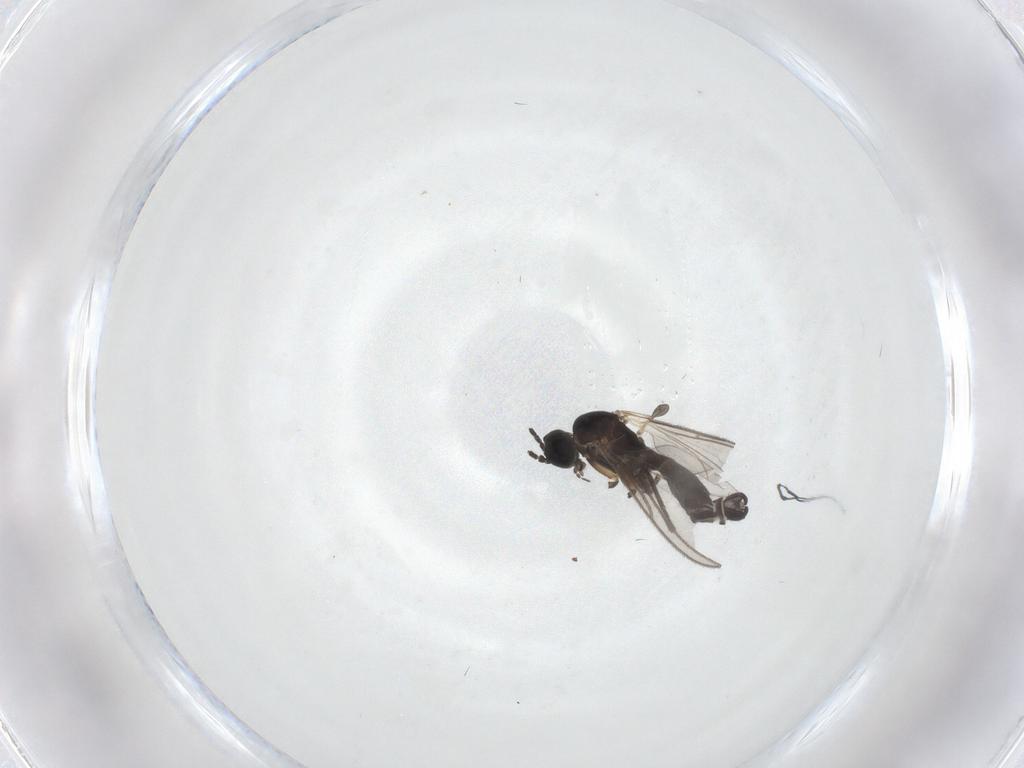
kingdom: Animalia
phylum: Arthropoda
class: Insecta
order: Diptera
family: Sciaridae
